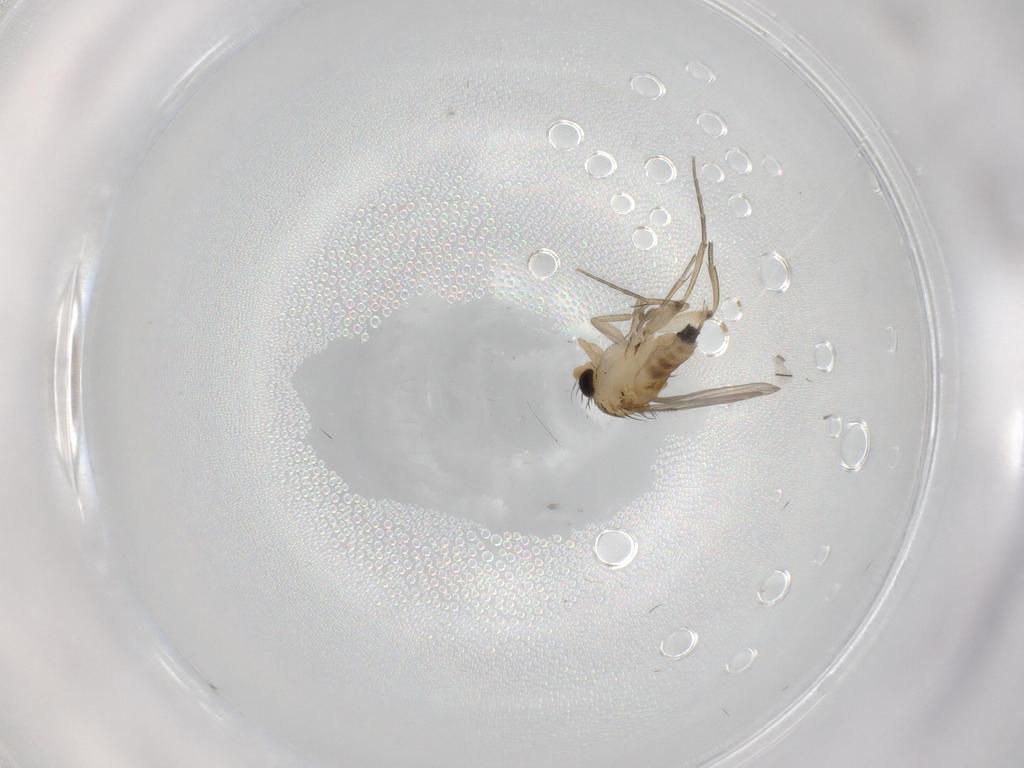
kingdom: Animalia
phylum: Arthropoda
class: Insecta
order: Diptera
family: Phoridae
